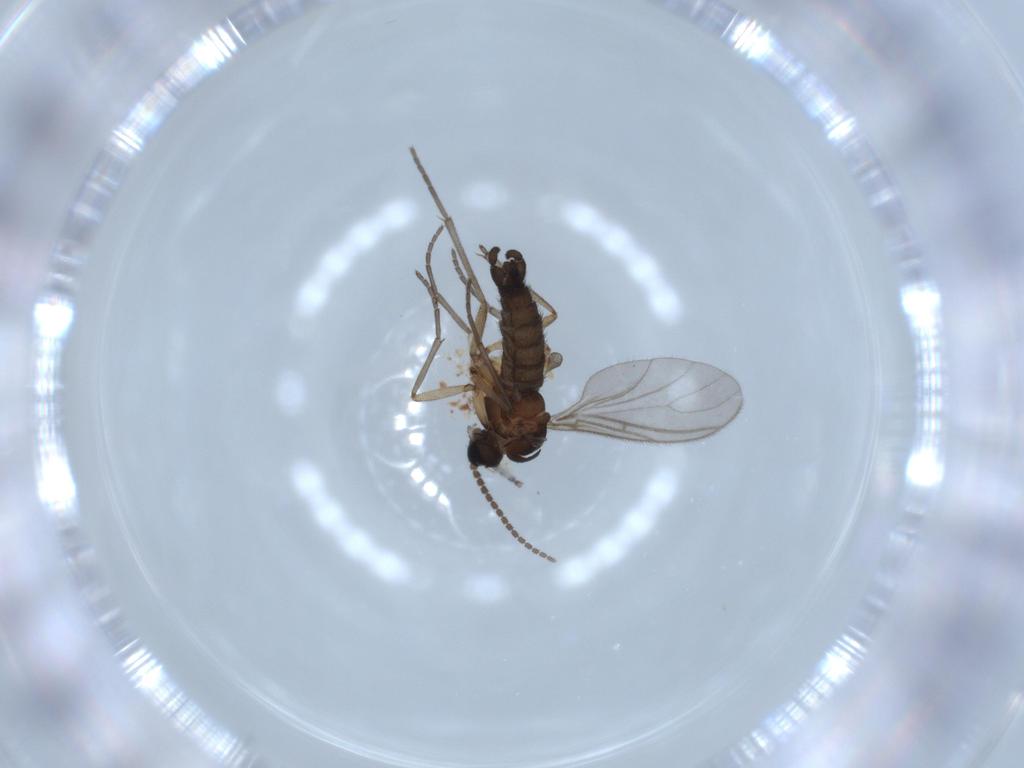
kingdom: Animalia
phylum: Arthropoda
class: Insecta
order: Diptera
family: Sciaridae
